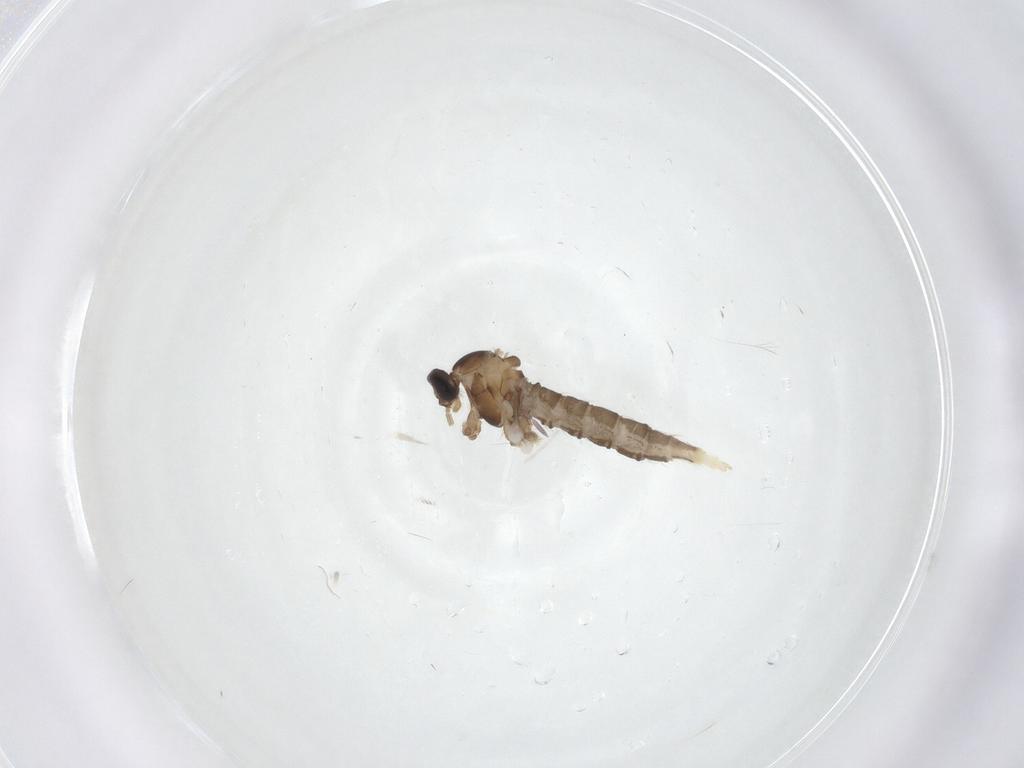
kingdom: Animalia
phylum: Arthropoda
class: Insecta
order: Diptera
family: Cecidomyiidae
